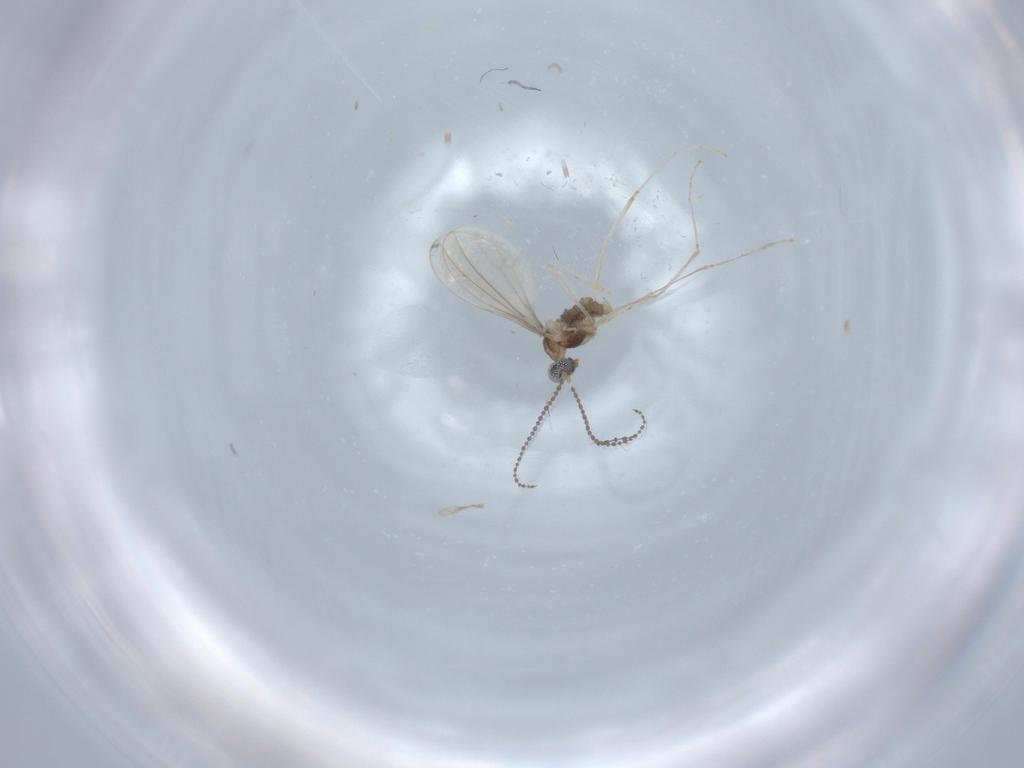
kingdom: Animalia
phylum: Arthropoda
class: Insecta
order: Diptera
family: Cecidomyiidae
